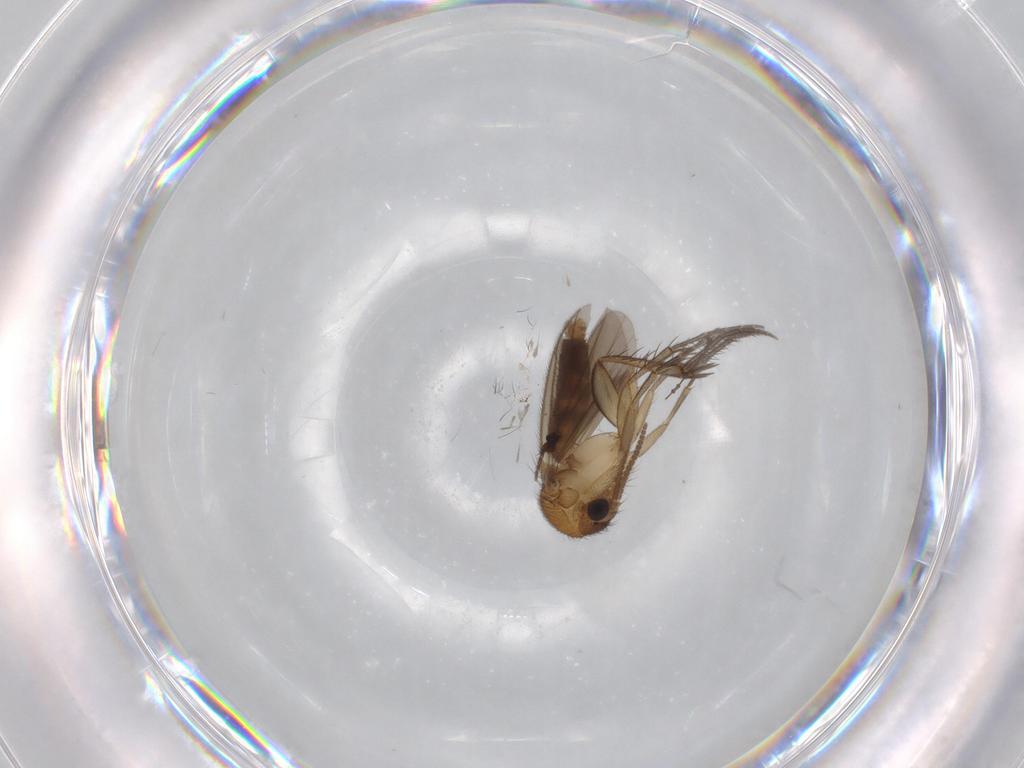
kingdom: Animalia
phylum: Arthropoda
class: Insecta
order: Diptera
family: Mycetophilidae
